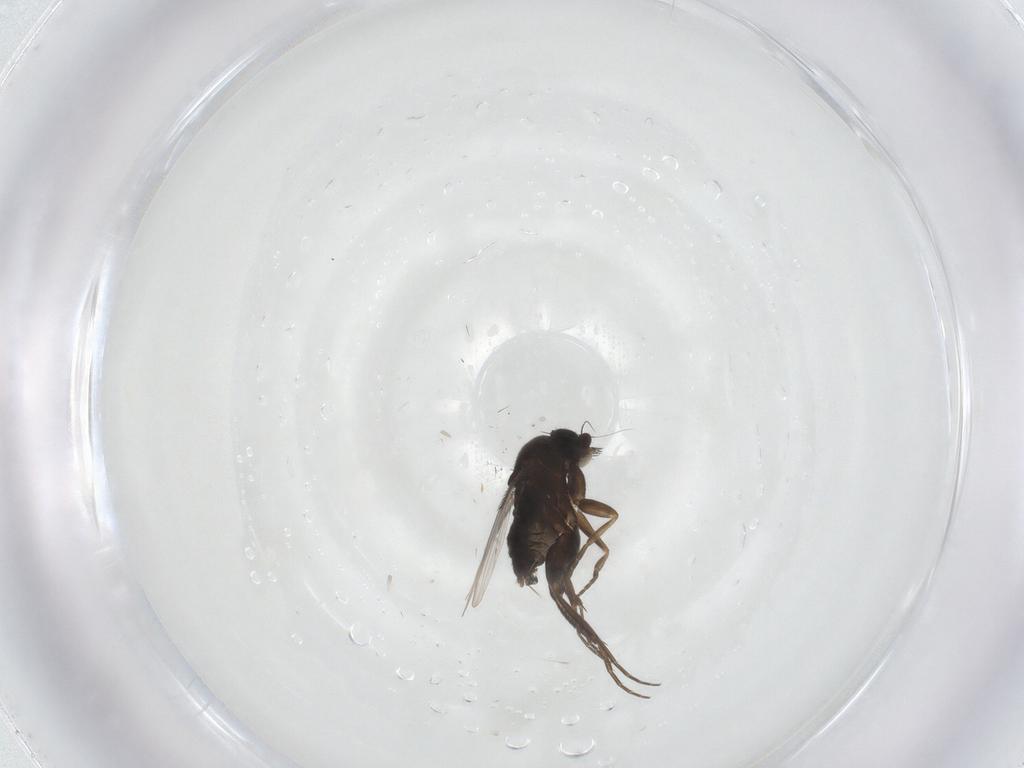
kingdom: Animalia
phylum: Arthropoda
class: Insecta
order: Diptera
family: Phoridae
